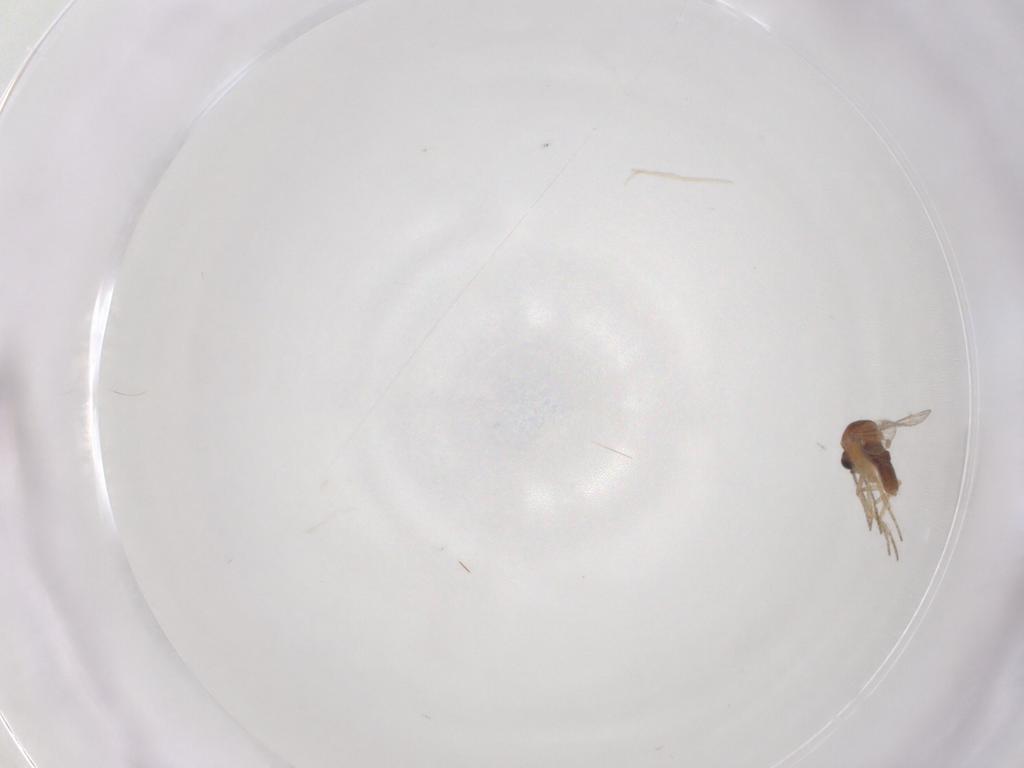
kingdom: Animalia
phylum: Arthropoda
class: Insecta
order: Diptera
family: Ceratopogonidae
